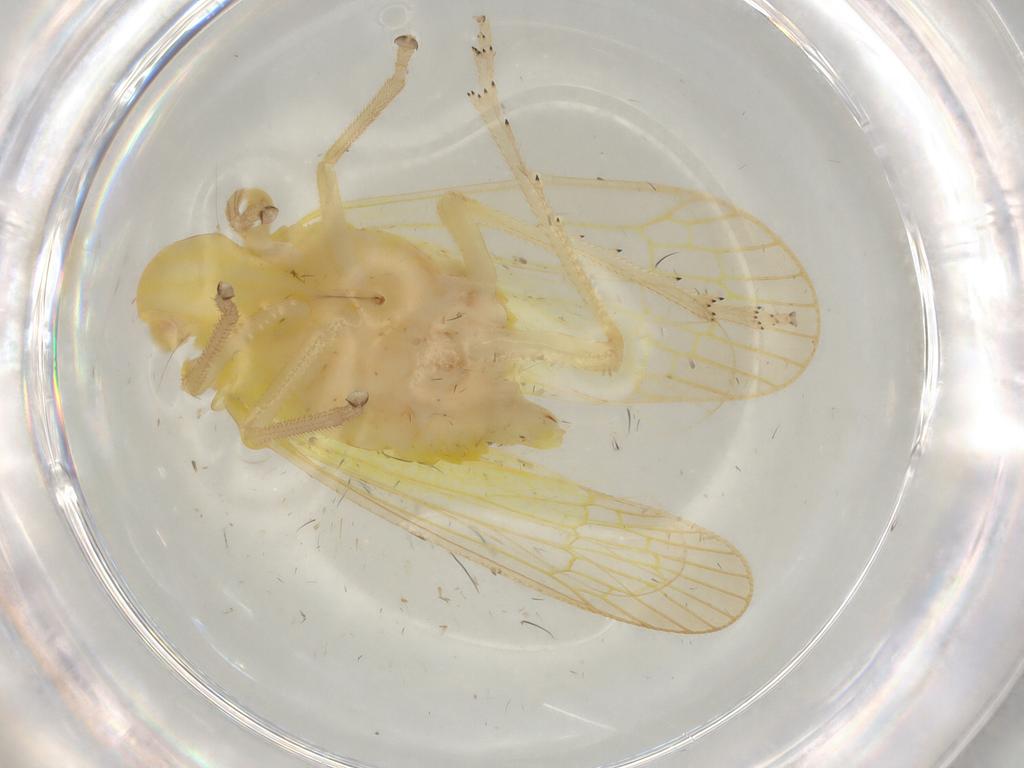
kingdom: Animalia
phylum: Arthropoda
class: Insecta
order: Hemiptera
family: Tropiduchidae
